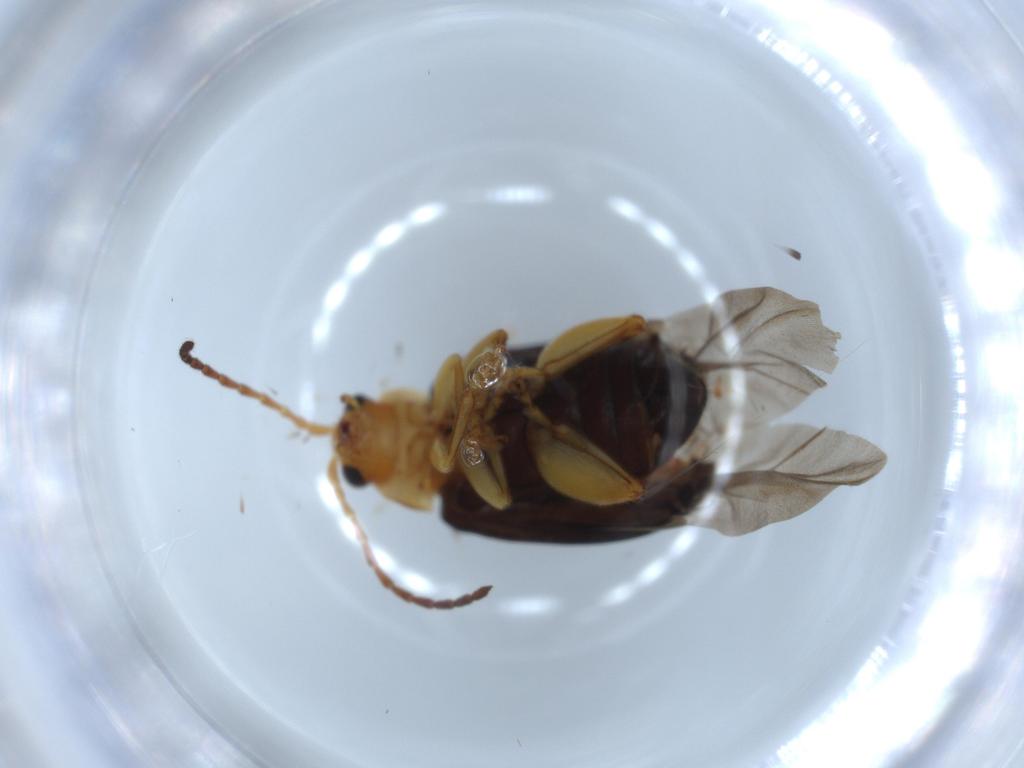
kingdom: Animalia
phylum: Arthropoda
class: Insecta
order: Coleoptera
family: Chrysomelidae
